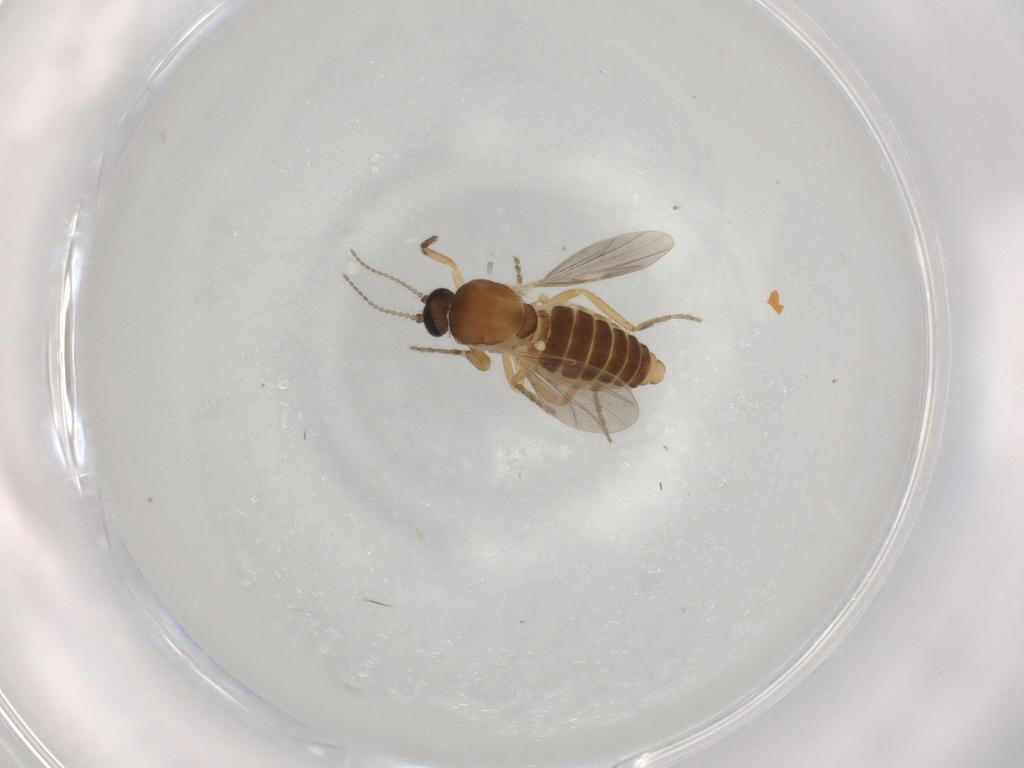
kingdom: Animalia
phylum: Arthropoda
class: Insecta
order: Diptera
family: Ceratopogonidae
